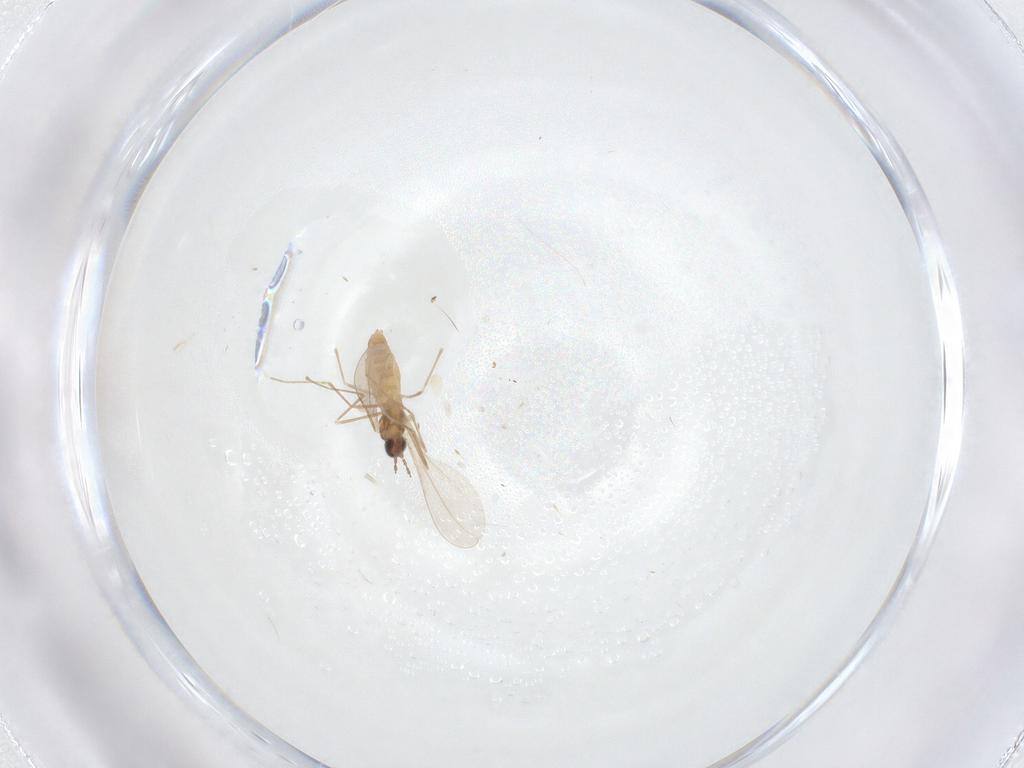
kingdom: Animalia
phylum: Arthropoda
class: Insecta
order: Diptera
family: Cecidomyiidae
